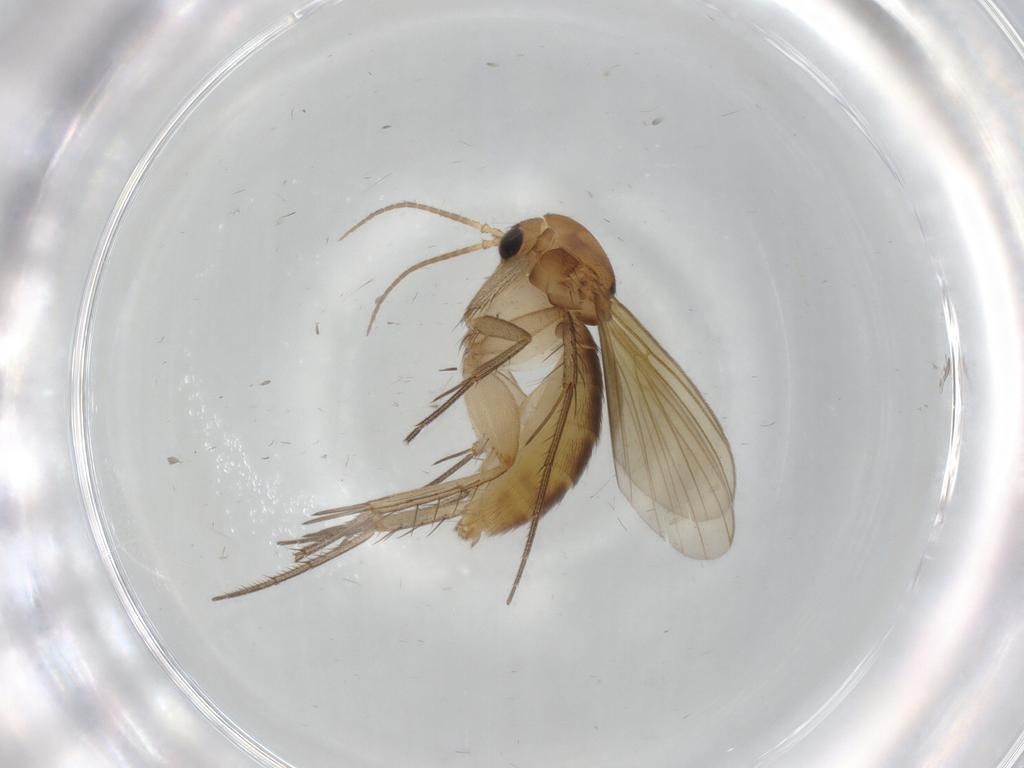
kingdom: Animalia
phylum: Arthropoda
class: Insecta
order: Diptera
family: Mycetophilidae
